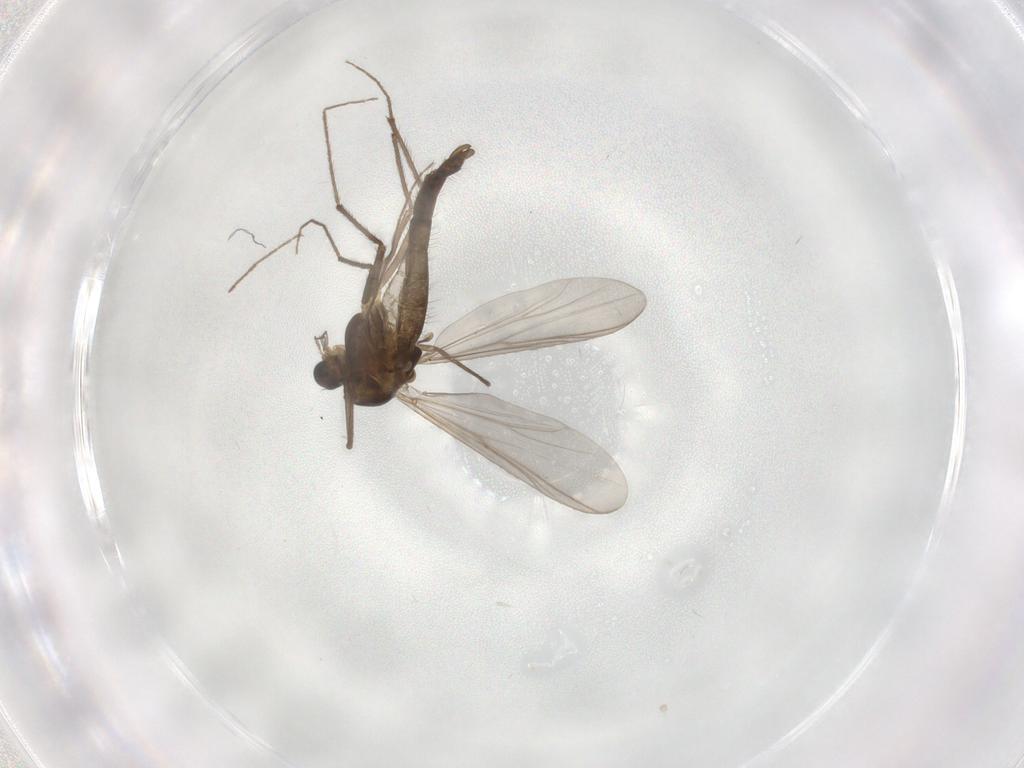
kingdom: Animalia
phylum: Arthropoda
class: Insecta
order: Diptera
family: Chironomidae
